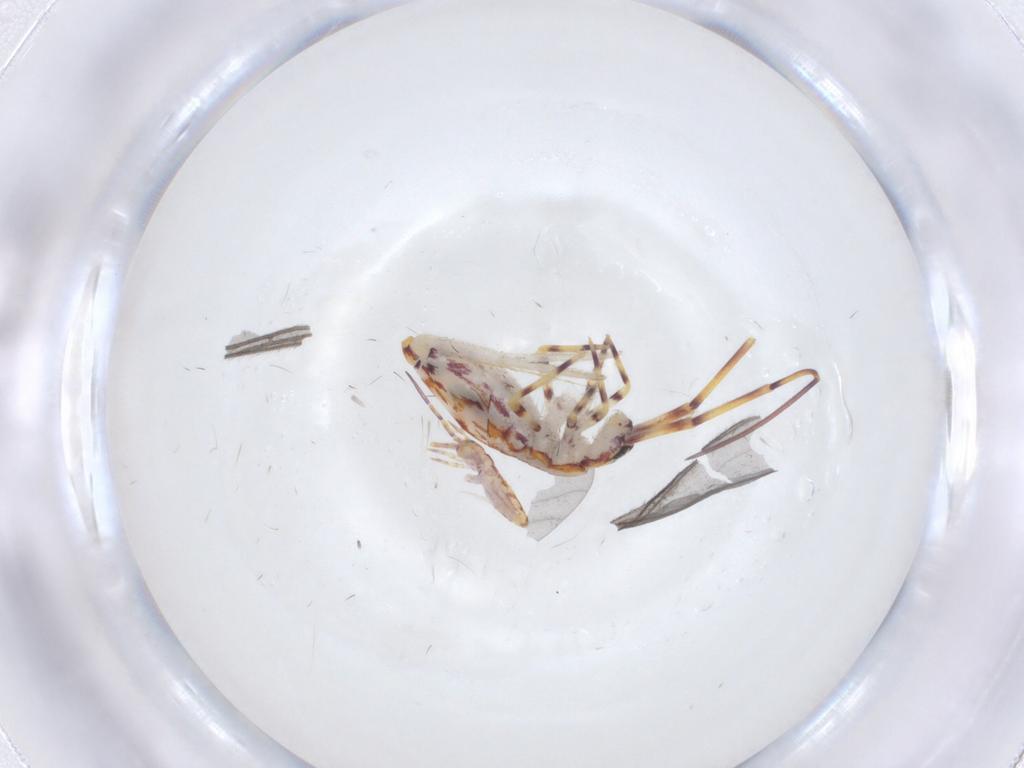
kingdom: Animalia
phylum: Arthropoda
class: Collembola
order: Entomobryomorpha
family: Entomobryidae
